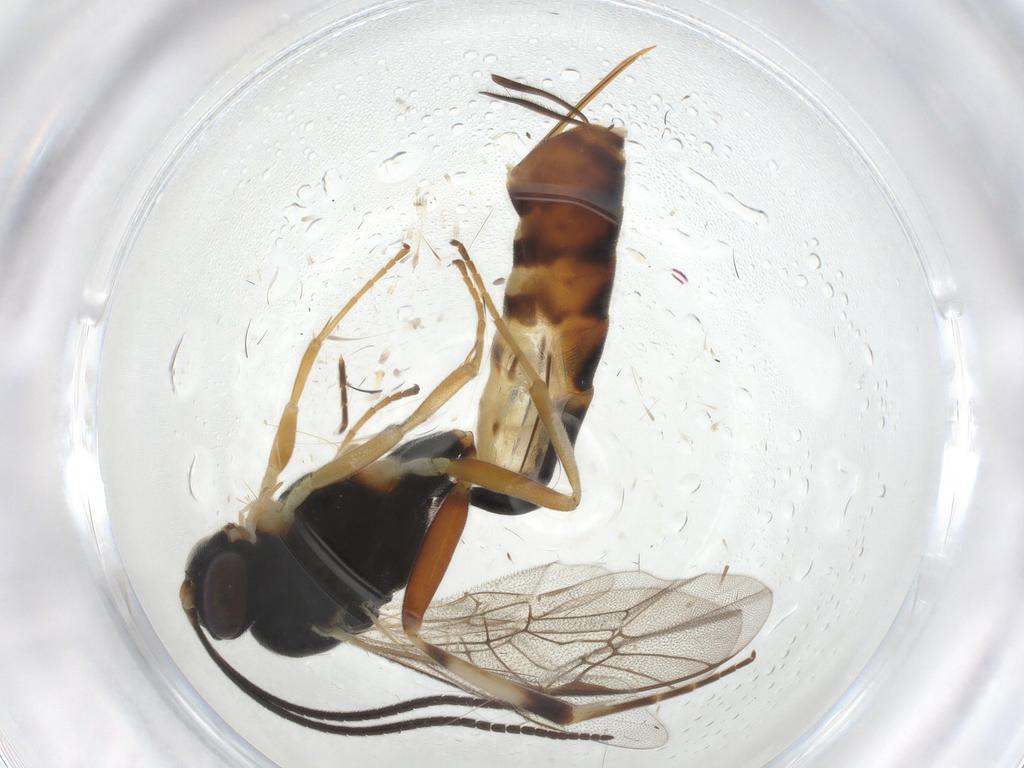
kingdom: Animalia
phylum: Arthropoda
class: Insecta
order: Hymenoptera
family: Ichneumonidae
